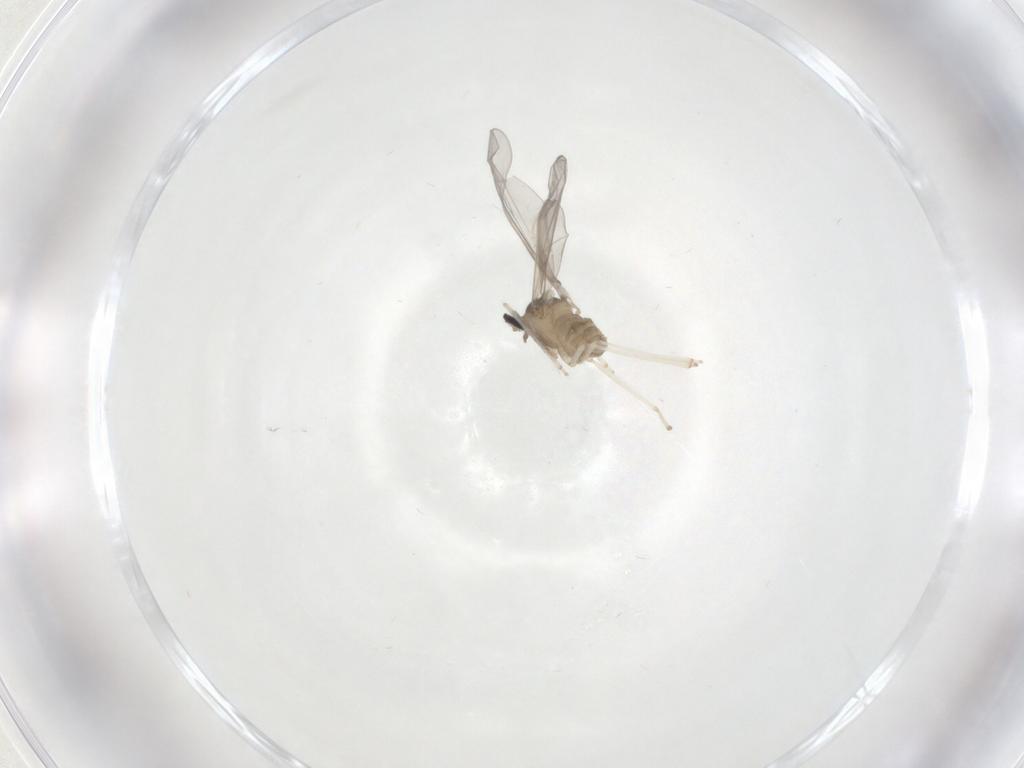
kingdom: Animalia
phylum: Arthropoda
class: Insecta
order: Diptera
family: Cecidomyiidae
